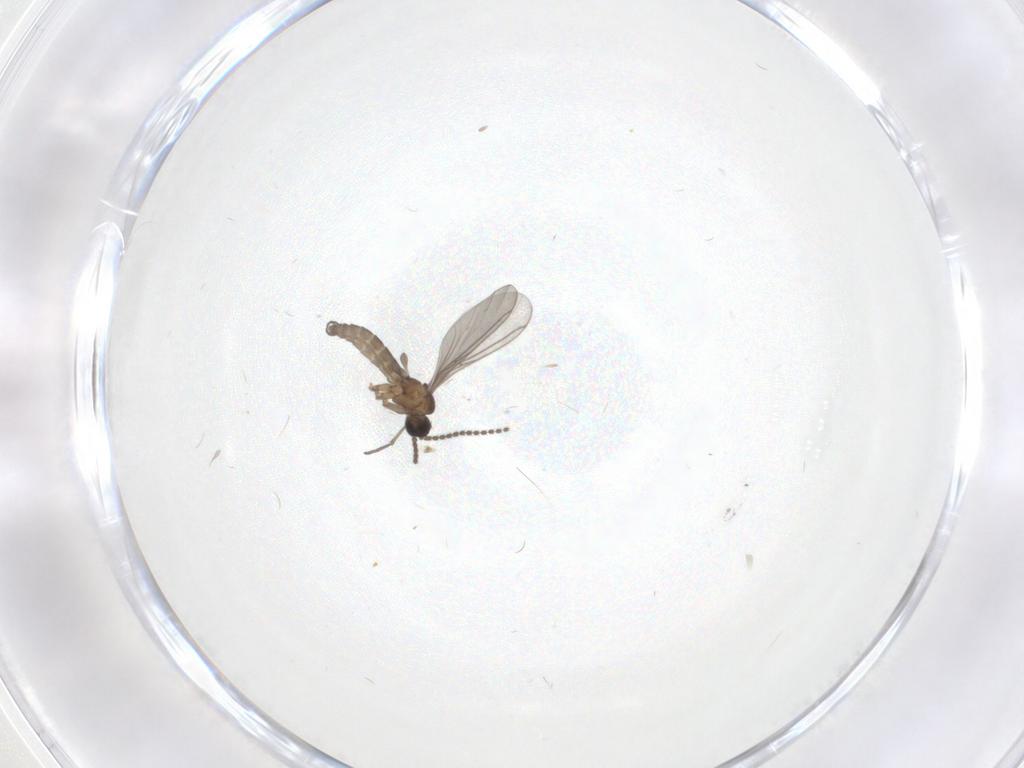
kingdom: Animalia
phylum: Arthropoda
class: Insecta
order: Diptera
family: Sciaridae
